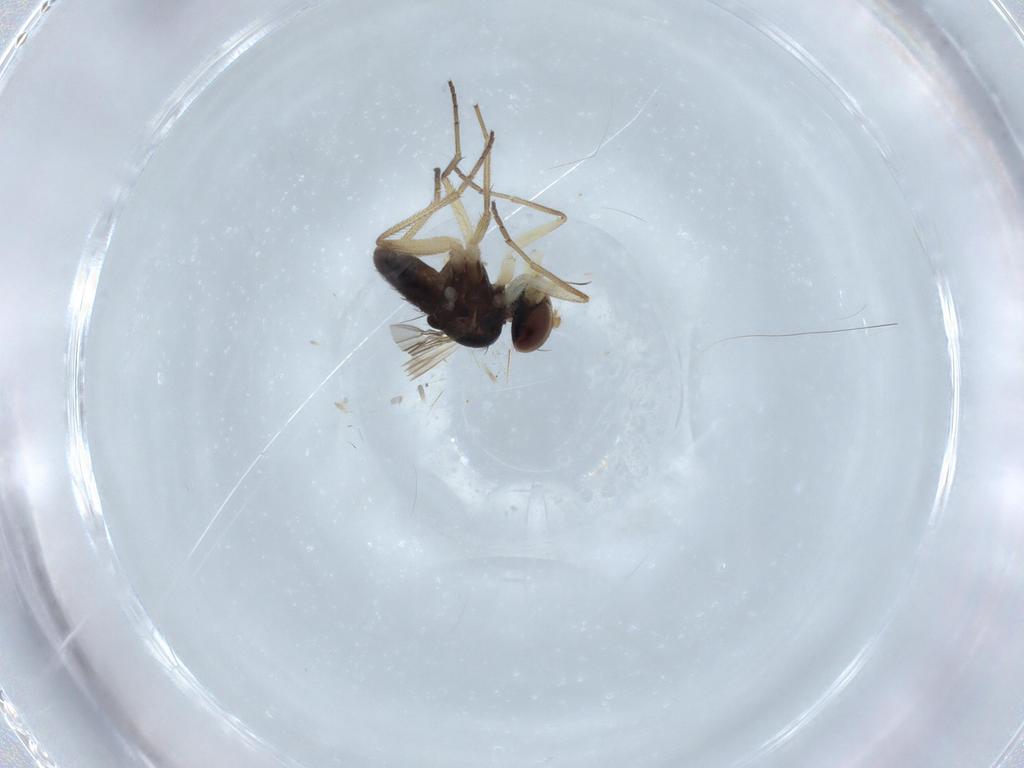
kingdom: Animalia
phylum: Arthropoda
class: Insecta
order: Diptera
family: Dolichopodidae
